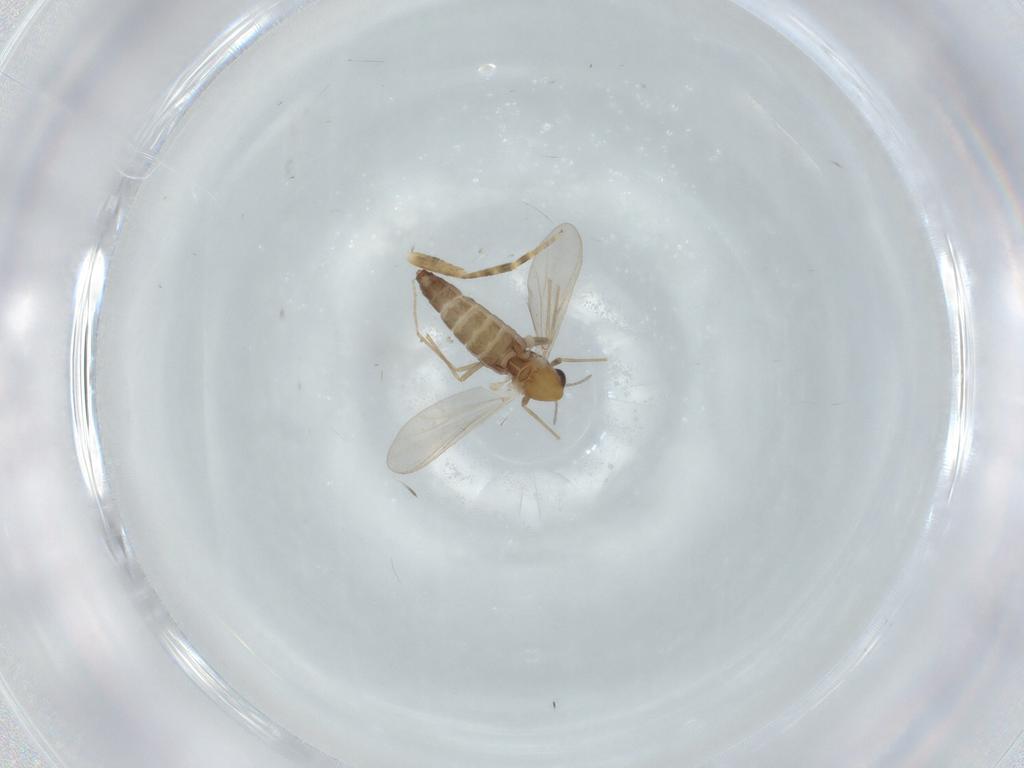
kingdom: Animalia
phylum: Arthropoda
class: Insecta
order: Diptera
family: Chironomidae
